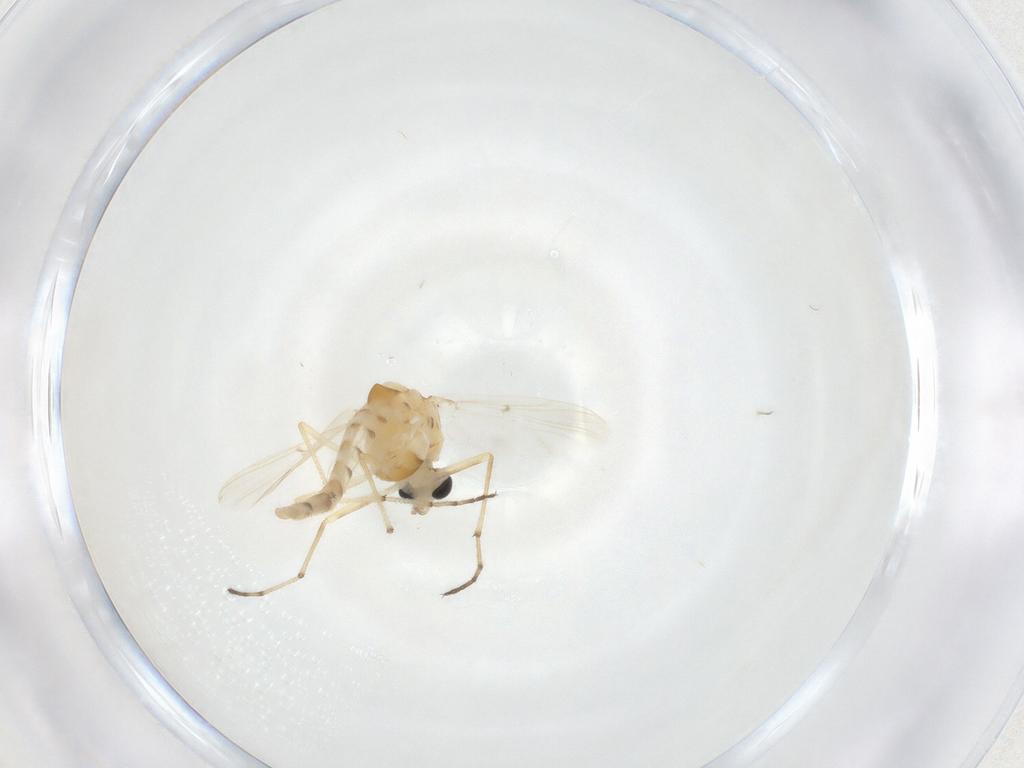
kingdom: Animalia
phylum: Arthropoda
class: Insecta
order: Diptera
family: Chironomidae
